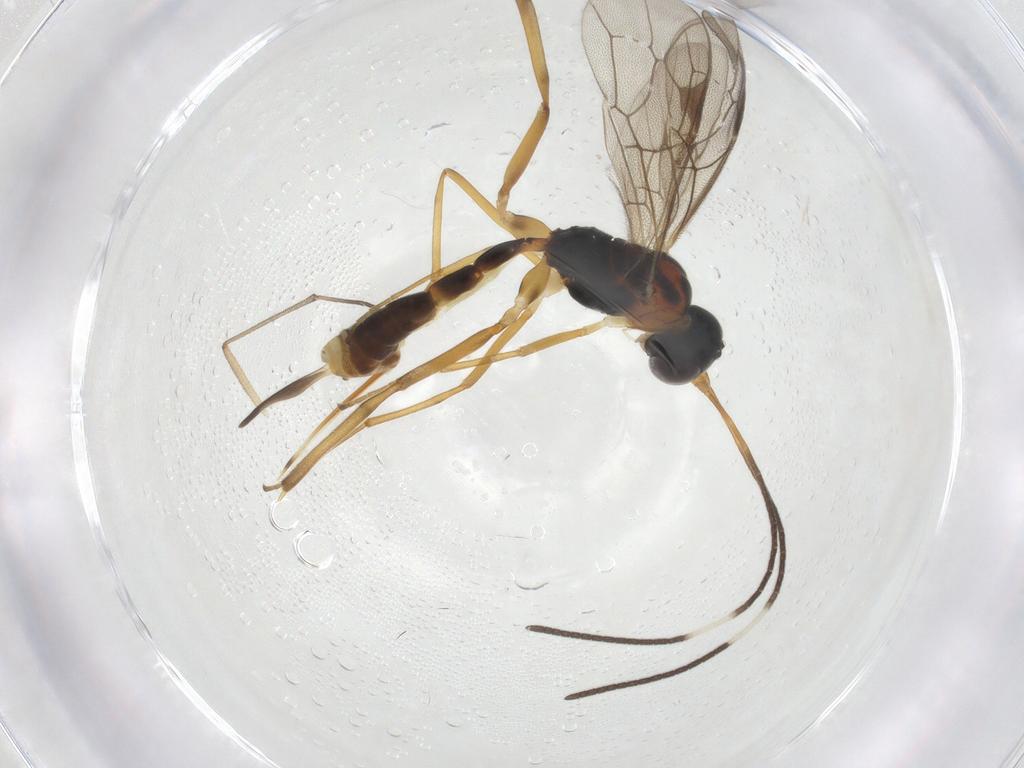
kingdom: Animalia
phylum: Arthropoda
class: Insecta
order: Hymenoptera
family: Ichneumonidae
